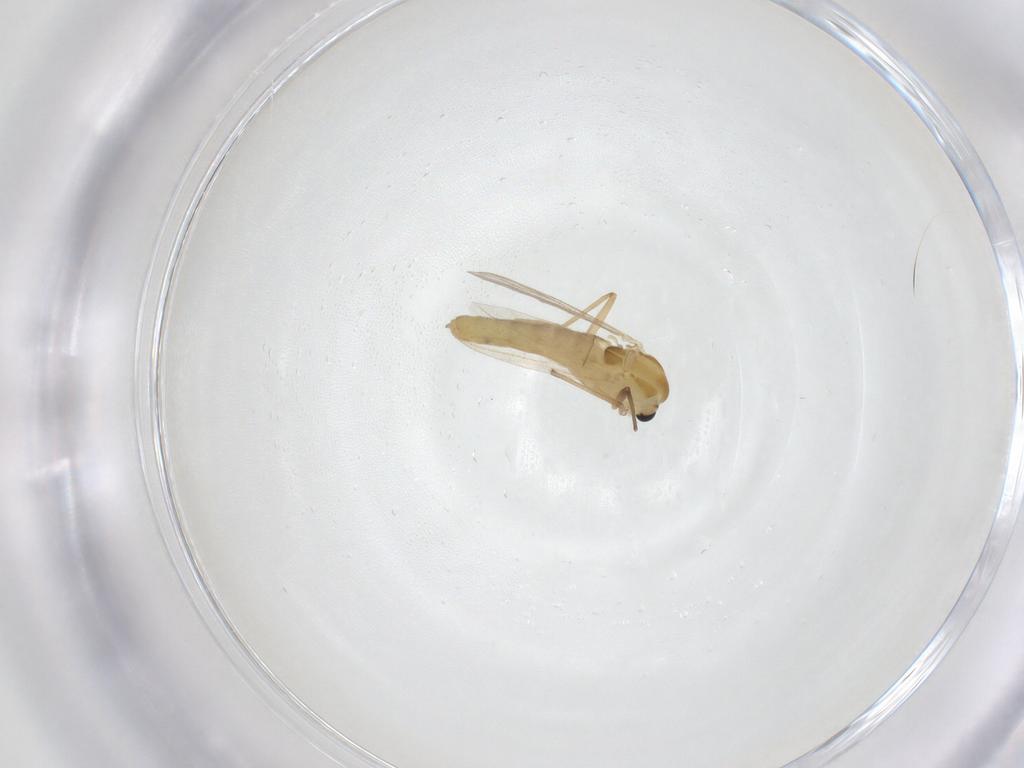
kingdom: Animalia
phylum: Arthropoda
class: Insecta
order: Diptera
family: Chironomidae
